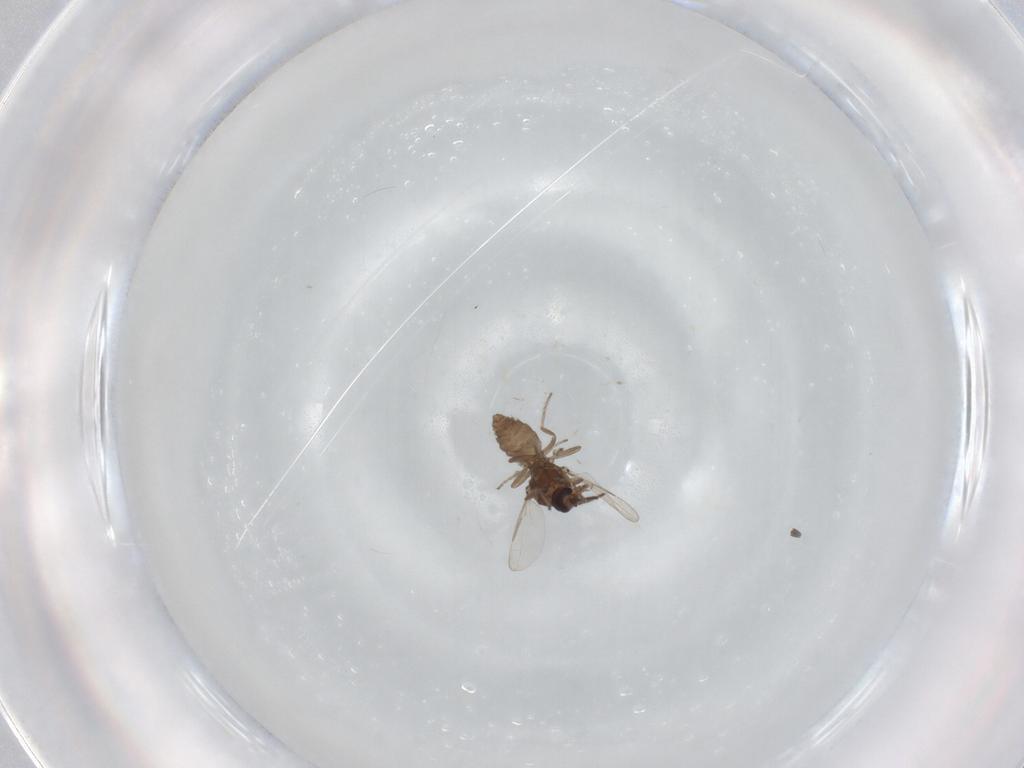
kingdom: Animalia
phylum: Arthropoda
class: Insecta
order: Diptera
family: Ceratopogonidae
